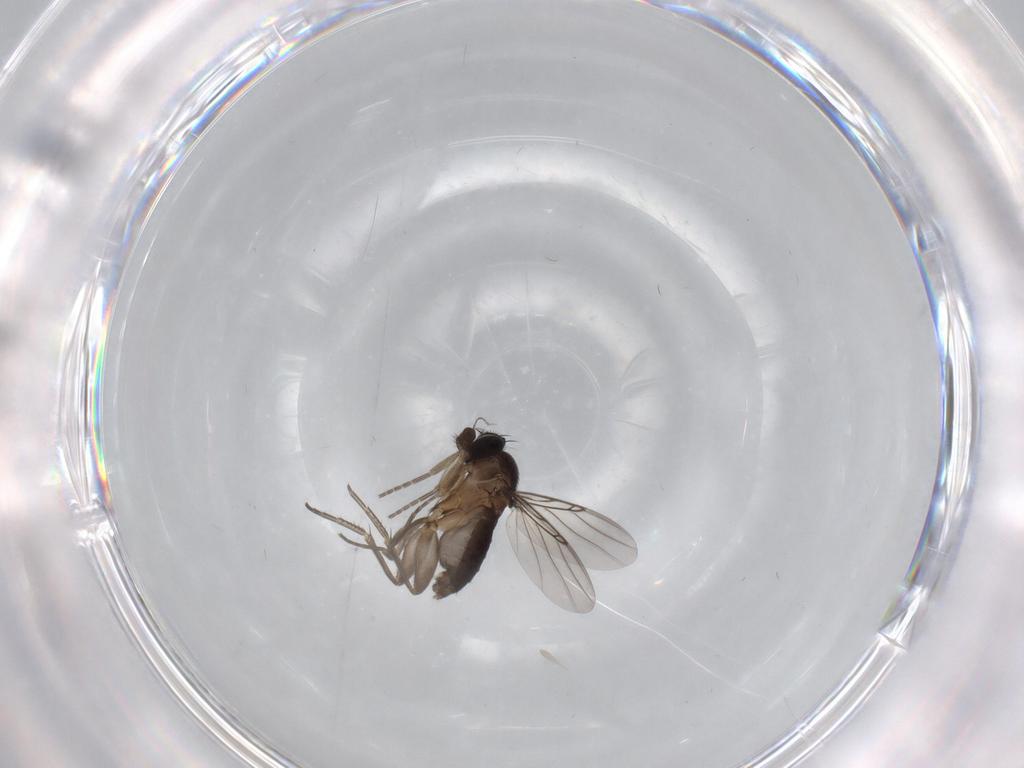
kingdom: Animalia
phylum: Arthropoda
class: Insecta
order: Diptera
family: Phoridae
